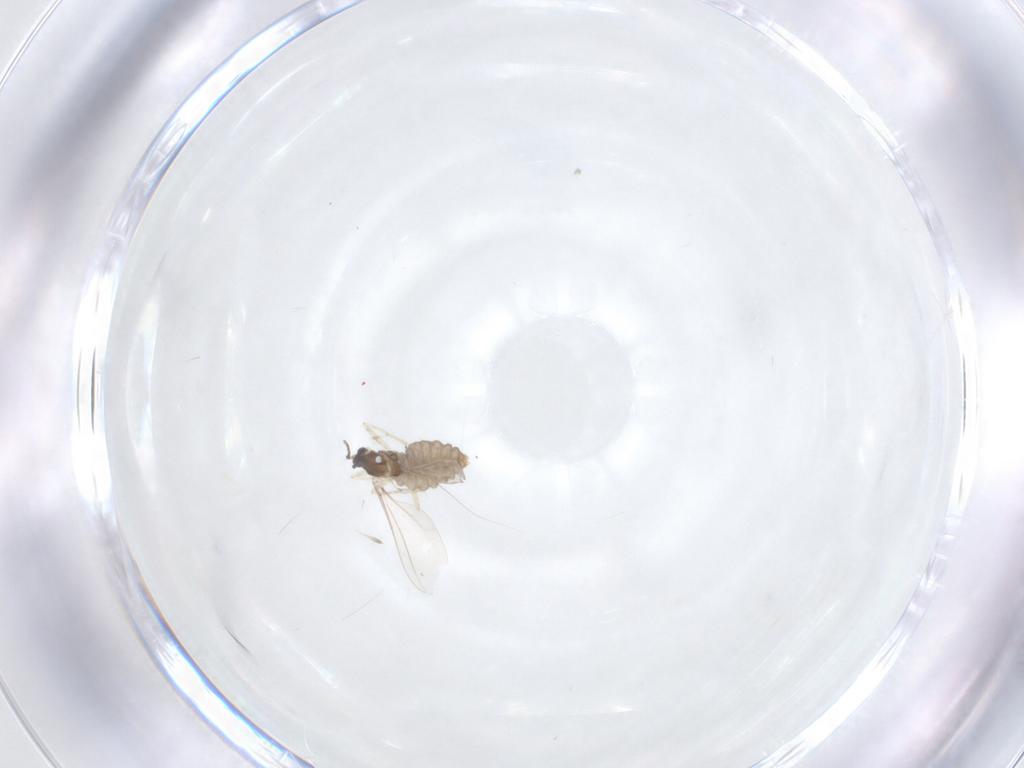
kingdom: Animalia
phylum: Arthropoda
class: Insecta
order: Diptera
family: Cecidomyiidae
